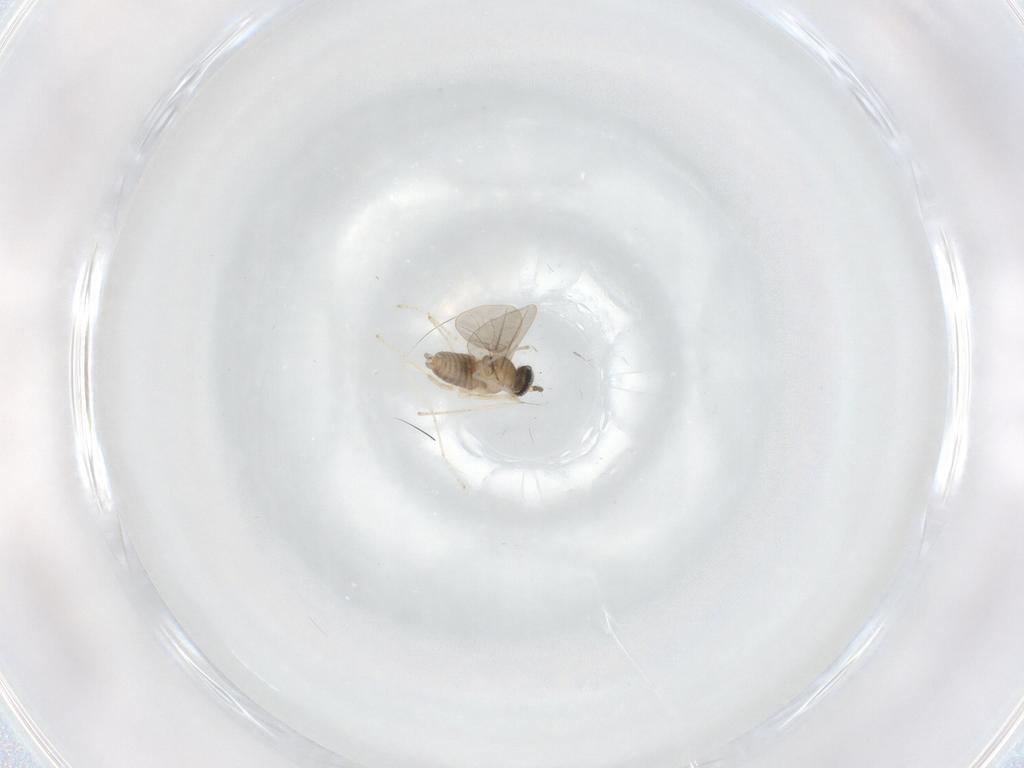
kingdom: Animalia
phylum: Arthropoda
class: Insecta
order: Diptera
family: Cecidomyiidae
